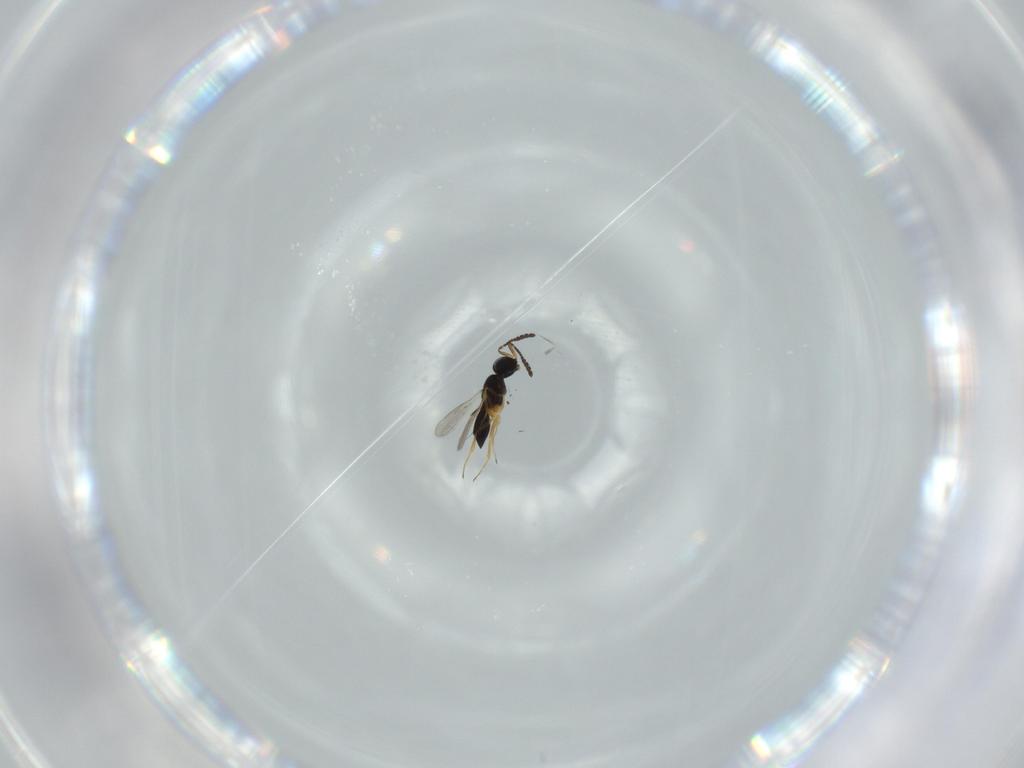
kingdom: Animalia
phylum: Arthropoda
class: Insecta
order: Hymenoptera
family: Scelionidae
